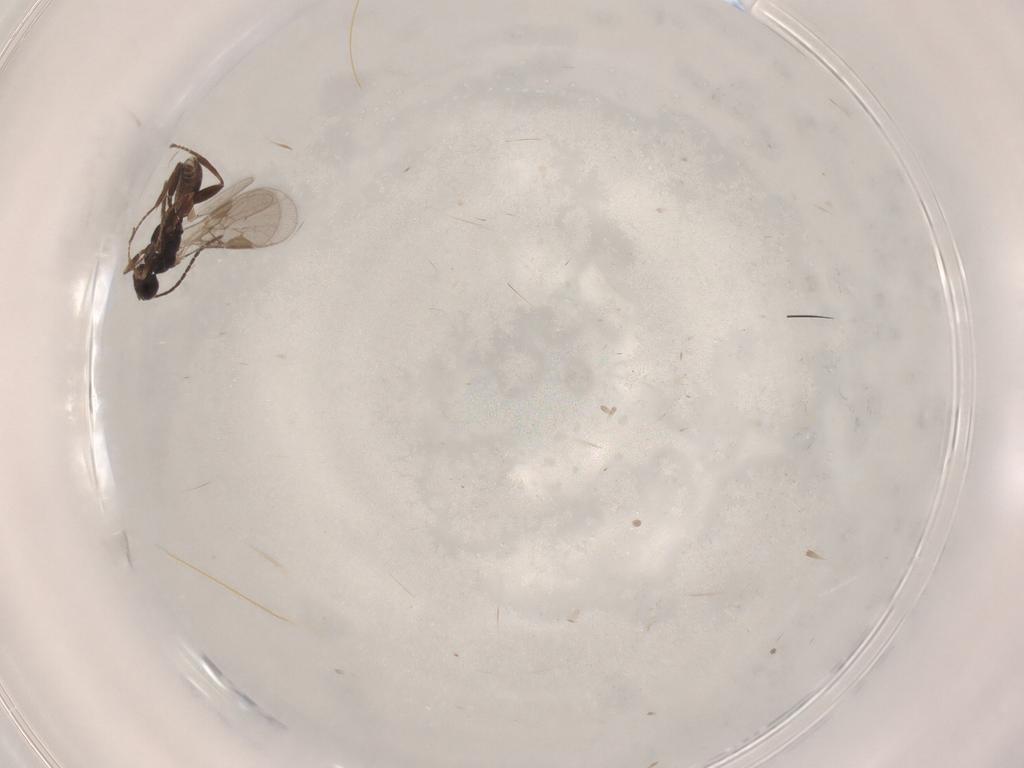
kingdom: Animalia
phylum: Arthropoda
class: Insecta
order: Hymenoptera
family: Braconidae
